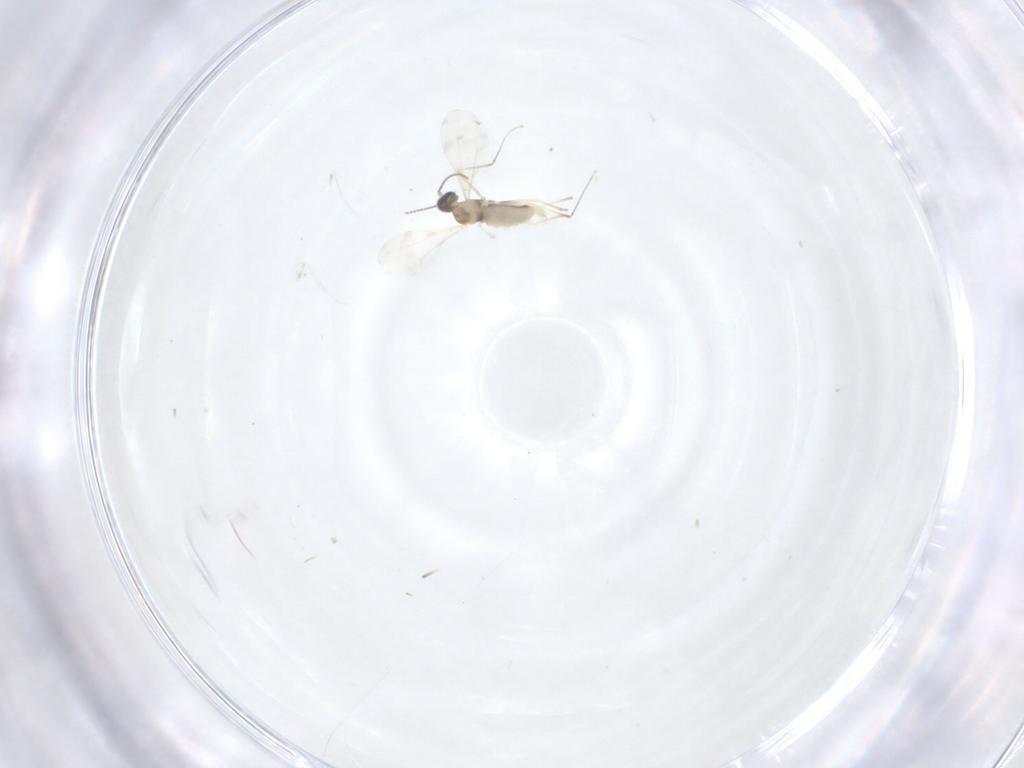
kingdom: Animalia
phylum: Arthropoda
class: Insecta
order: Diptera
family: Cecidomyiidae
